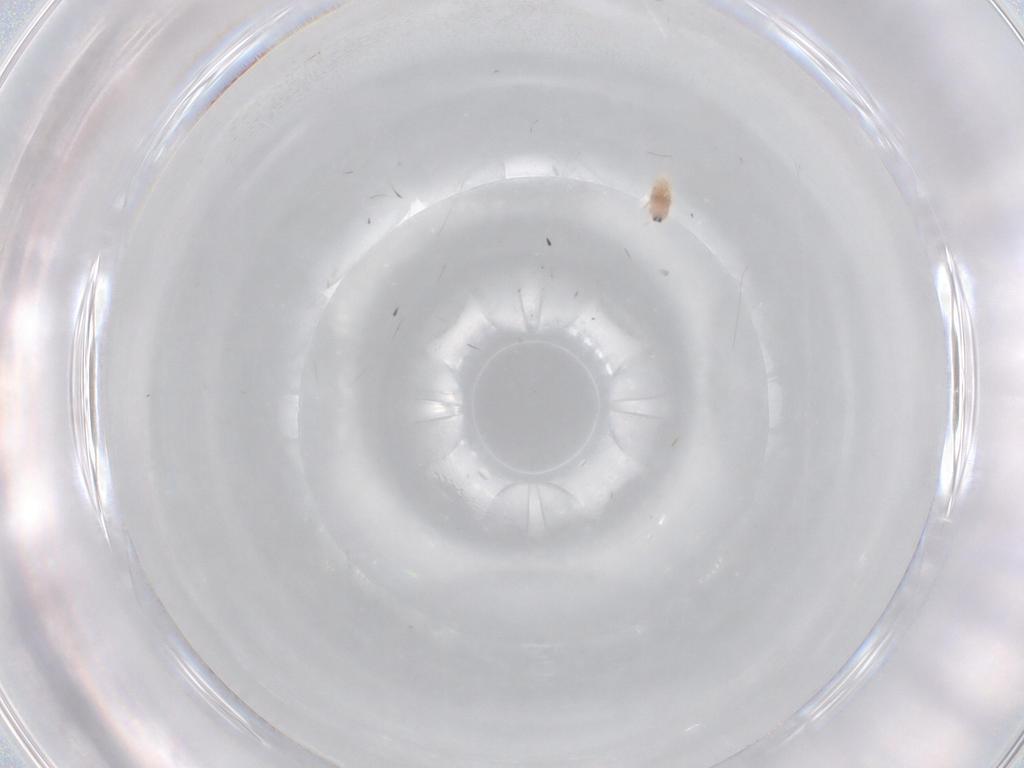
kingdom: Animalia
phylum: Arthropoda
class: Insecta
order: Diptera
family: Ceratopogonidae
